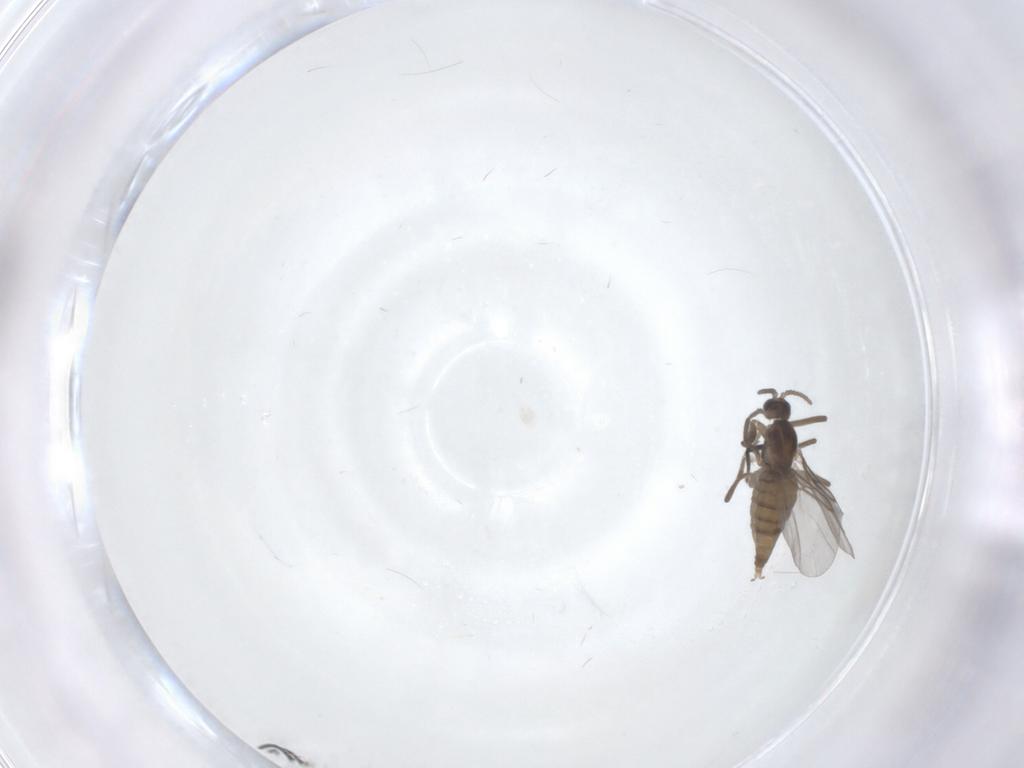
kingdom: Animalia
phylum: Arthropoda
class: Insecta
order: Diptera
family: Cecidomyiidae
